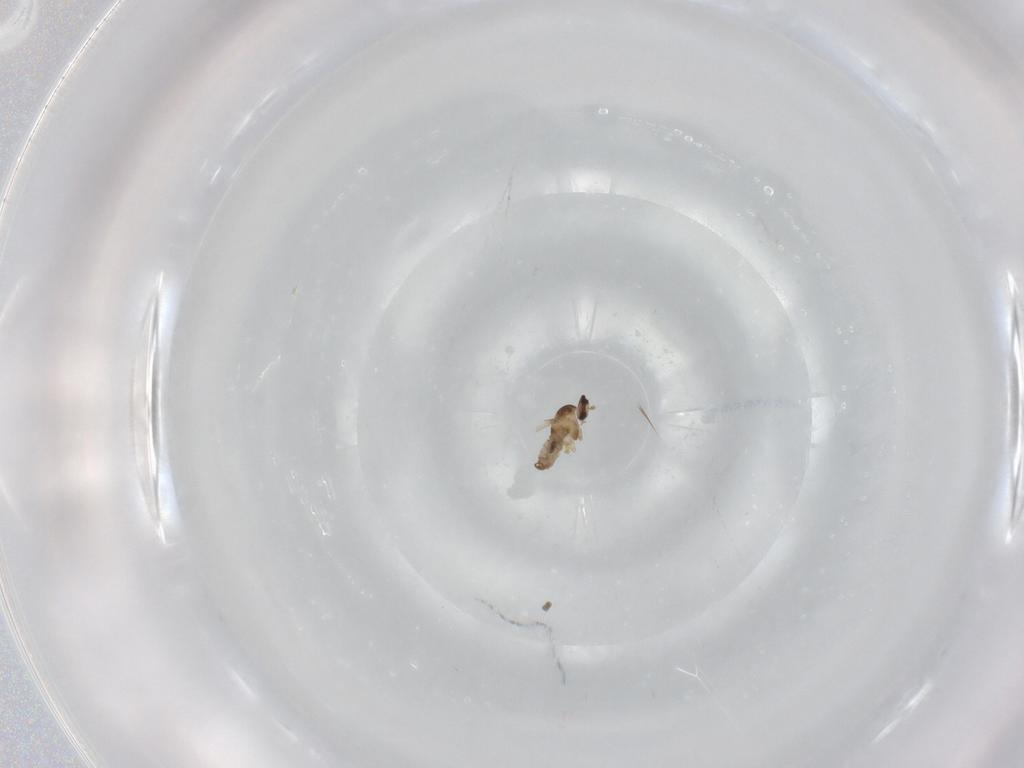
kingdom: Animalia
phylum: Arthropoda
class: Insecta
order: Diptera
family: Cecidomyiidae
